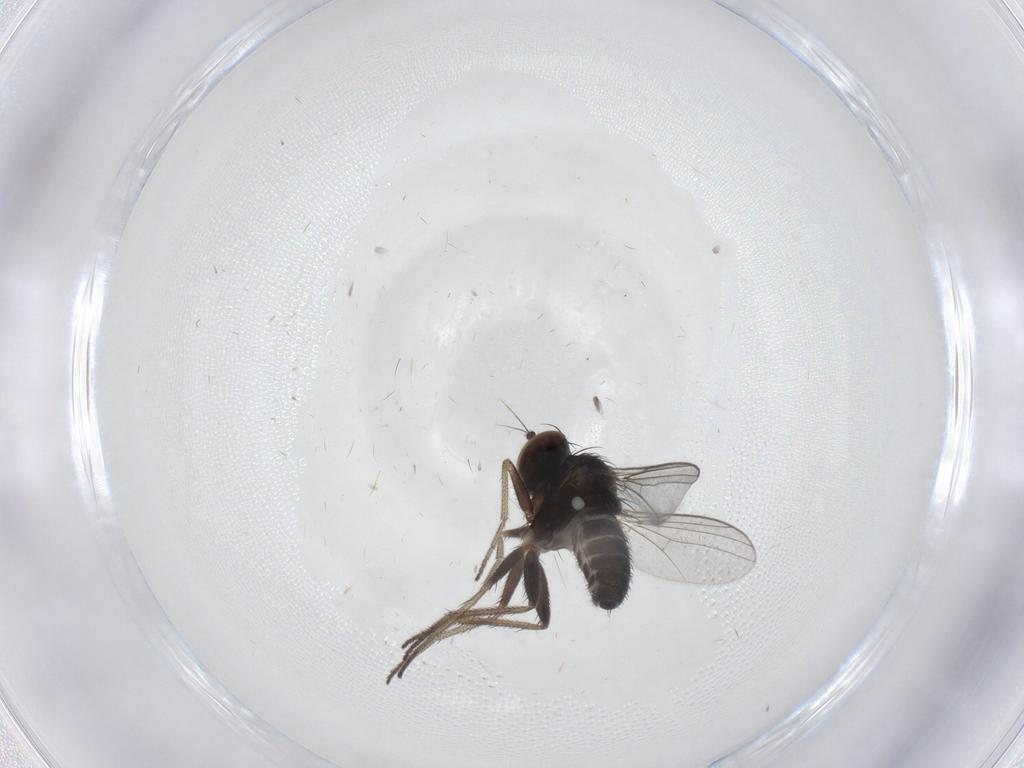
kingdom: Animalia
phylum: Arthropoda
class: Insecta
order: Diptera
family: Dolichopodidae
